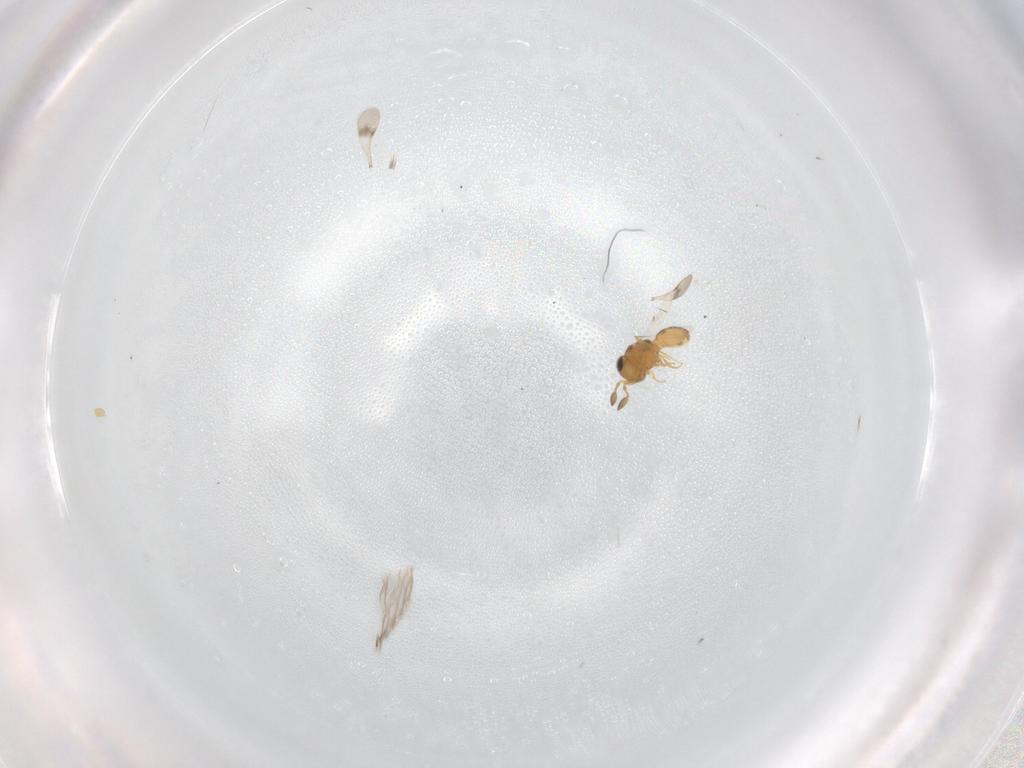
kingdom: Animalia
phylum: Arthropoda
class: Insecta
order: Hymenoptera
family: Scelionidae
